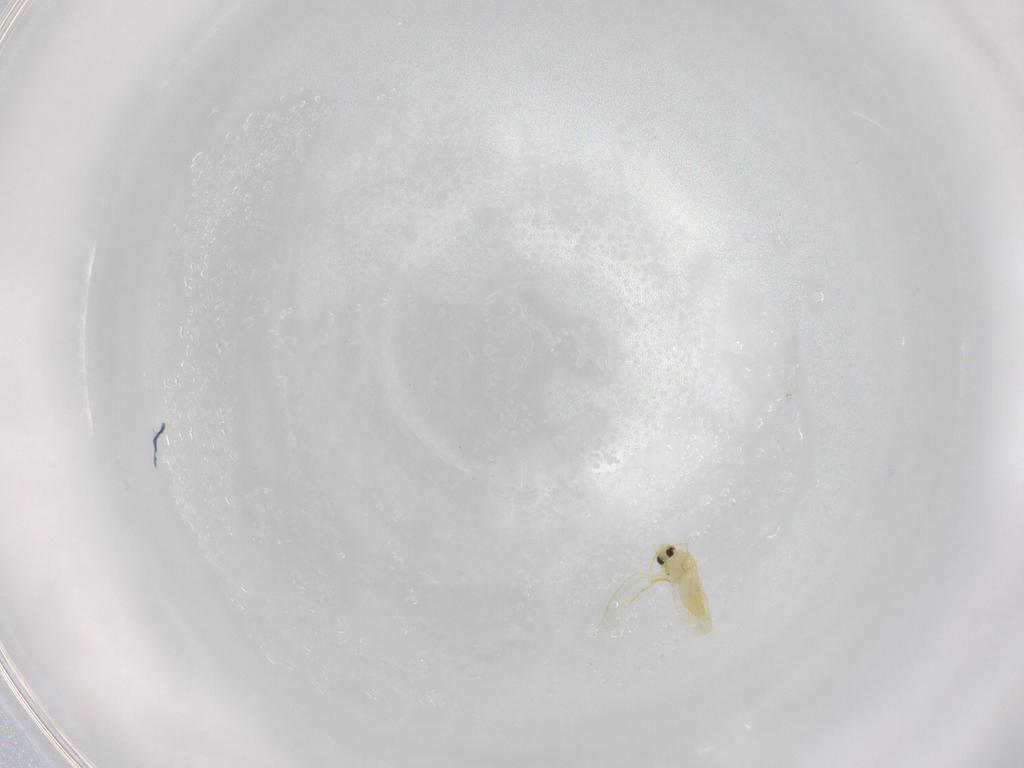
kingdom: Animalia
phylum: Arthropoda
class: Insecta
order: Hemiptera
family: Aleyrodidae
